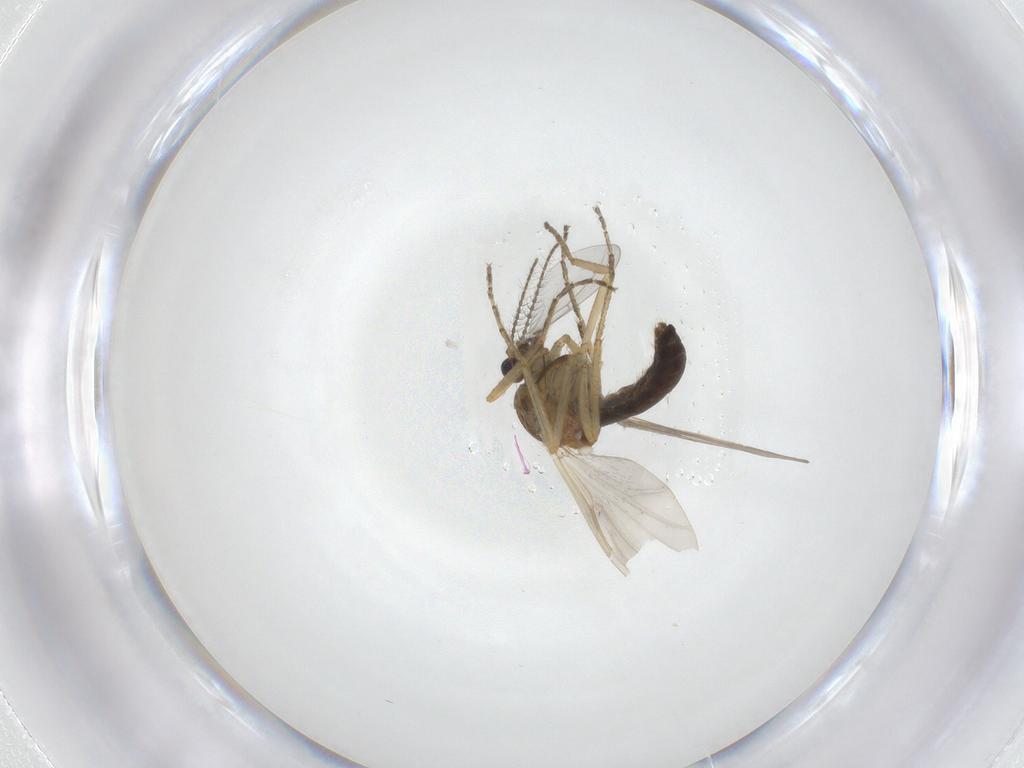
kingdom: Animalia
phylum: Arthropoda
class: Insecta
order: Diptera
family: Ceratopogonidae
